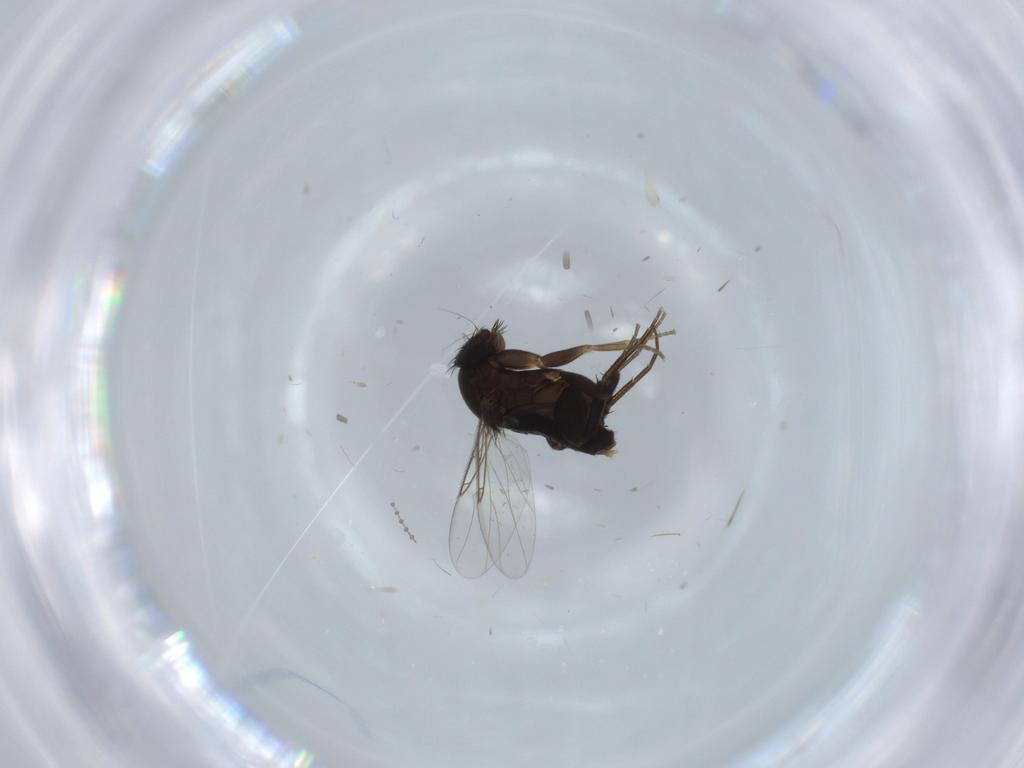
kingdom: Animalia
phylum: Arthropoda
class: Insecta
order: Diptera
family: Phoridae
